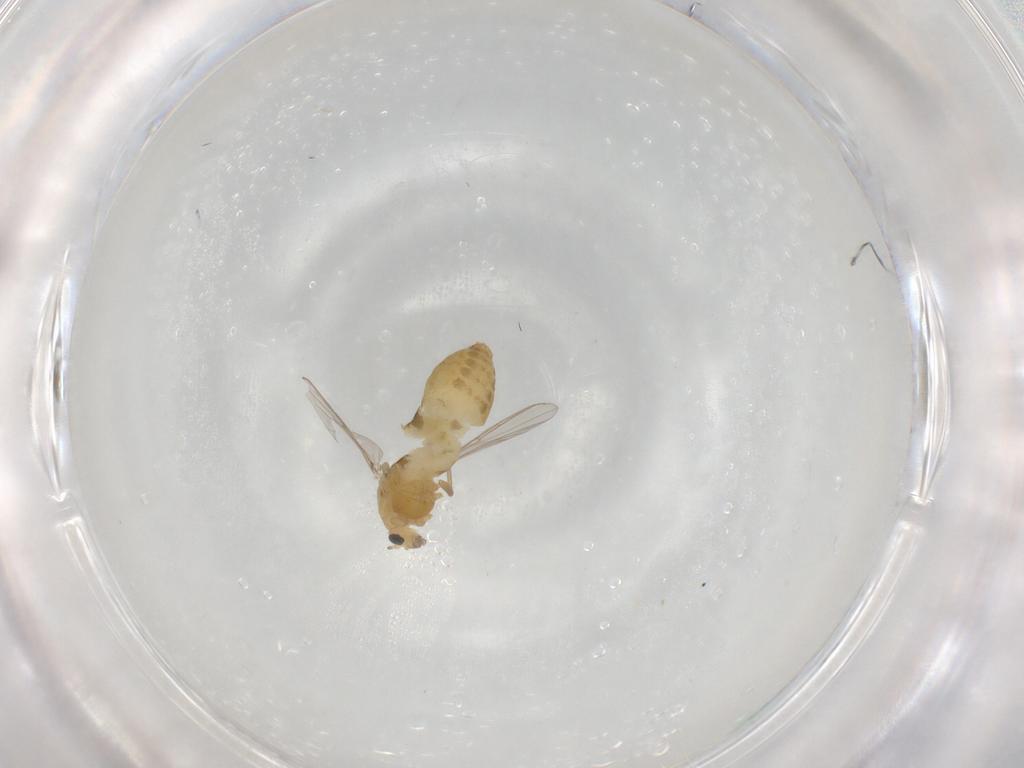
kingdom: Animalia
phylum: Arthropoda
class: Insecta
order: Diptera
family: Chironomidae
